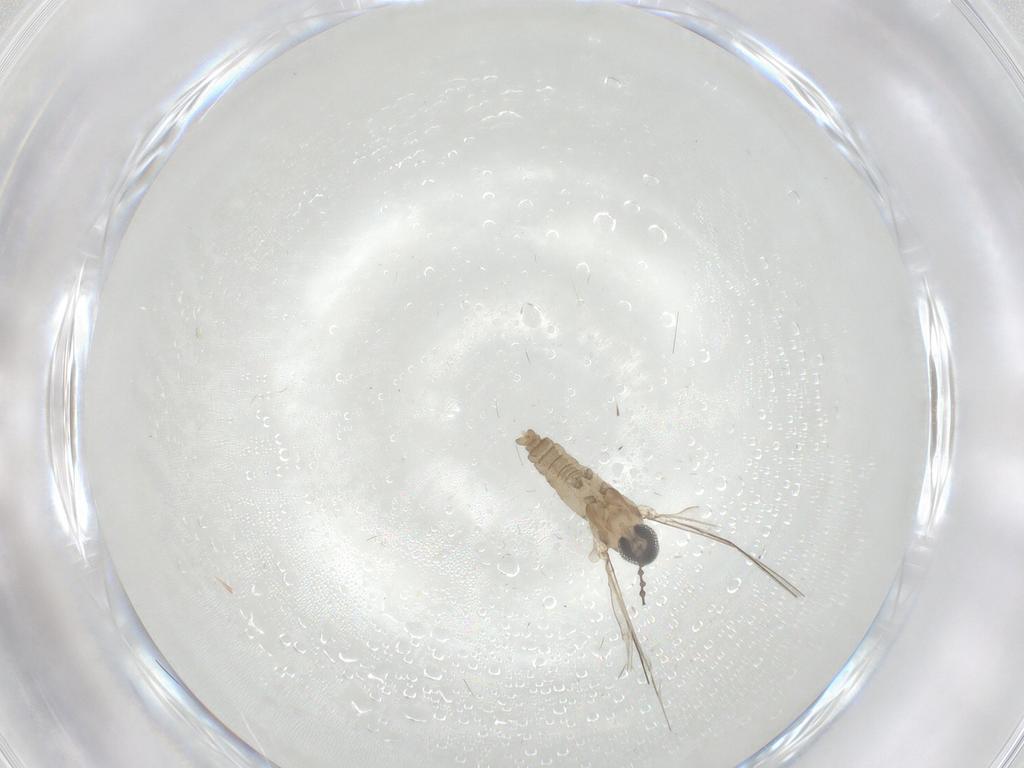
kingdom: Animalia
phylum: Arthropoda
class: Insecta
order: Diptera
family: Cecidomyiidae
